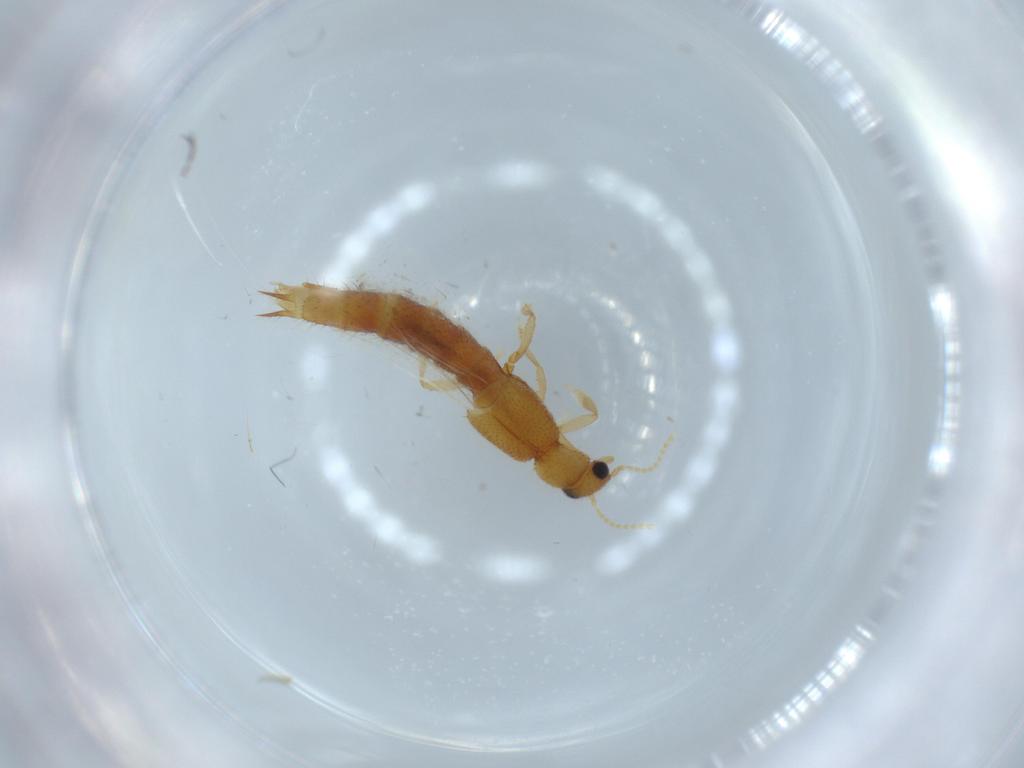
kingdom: Animalia
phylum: Arthropoda
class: Insecta
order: Coleoptera
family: Staphylinidae
